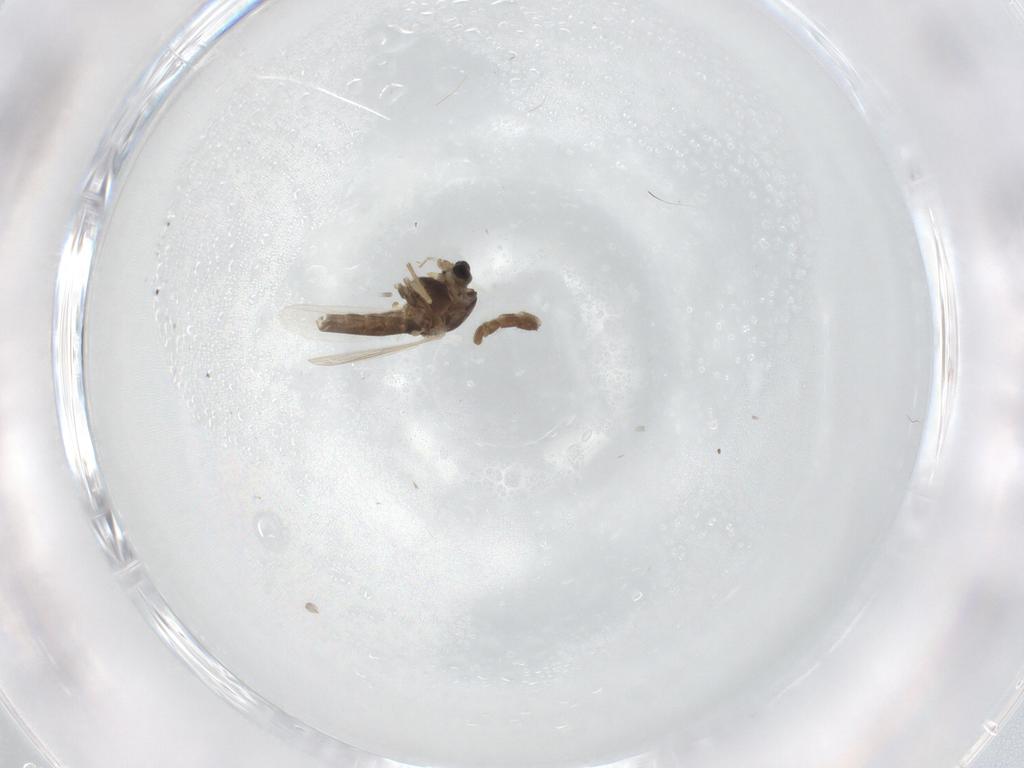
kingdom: Animalia
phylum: Arthropoda
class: Insecta
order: Diptera
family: Chironomidae
